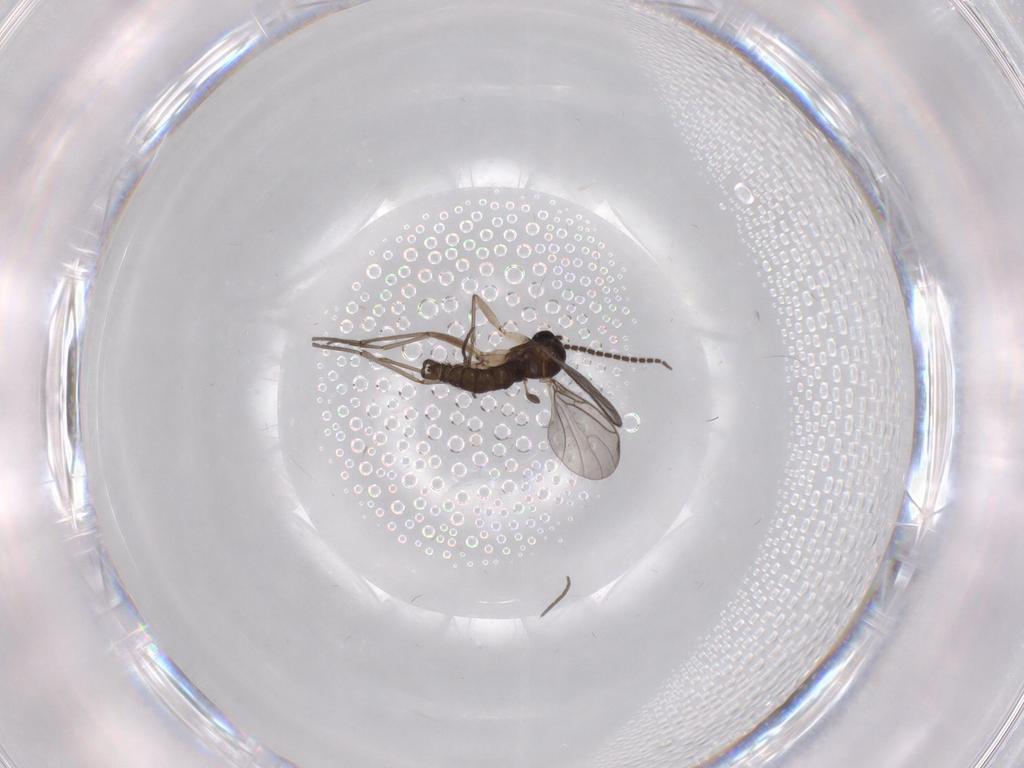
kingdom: Animalia
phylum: Arthropoda
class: Insecta
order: Diptera
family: Sciaridae
